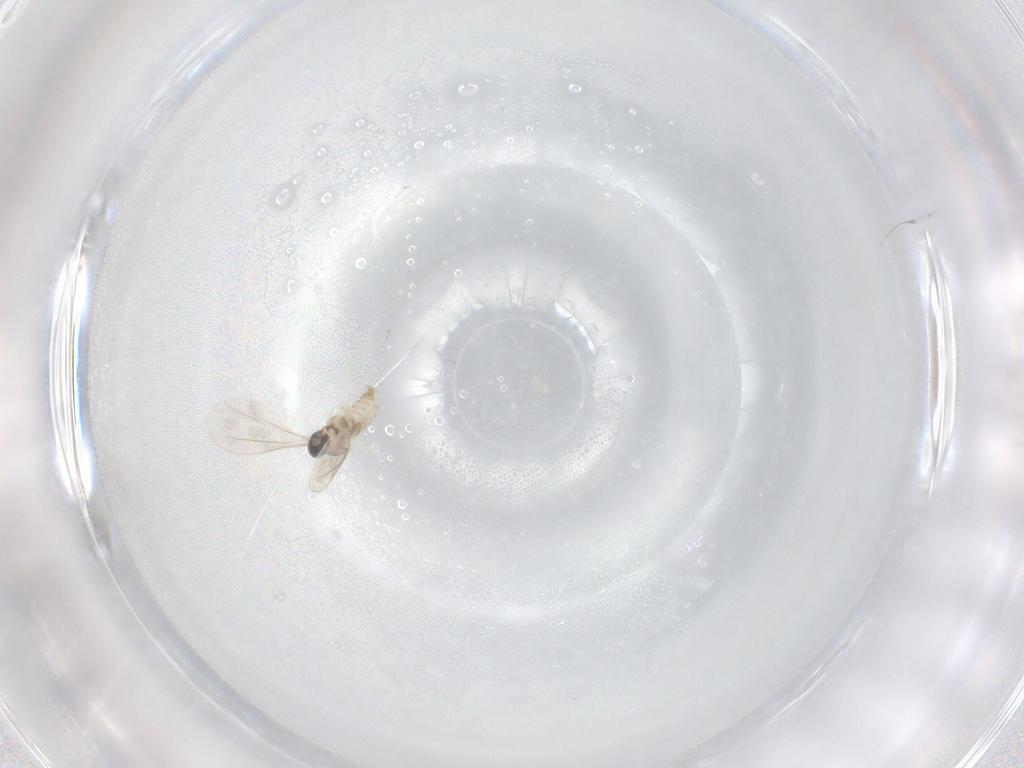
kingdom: Animalia
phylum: Arthropoda
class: Insecta
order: Diptera
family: Cecidomyiidae
